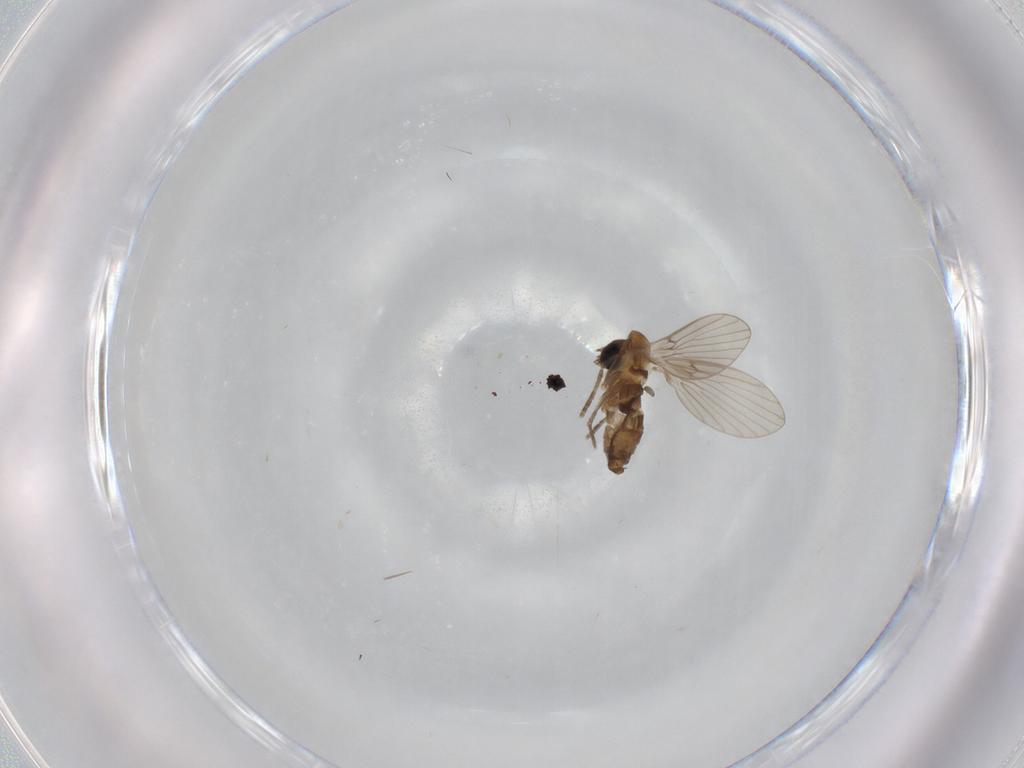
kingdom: Animalia
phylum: Arthropoda
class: Insecta
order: Diptera
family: Psychodidae
